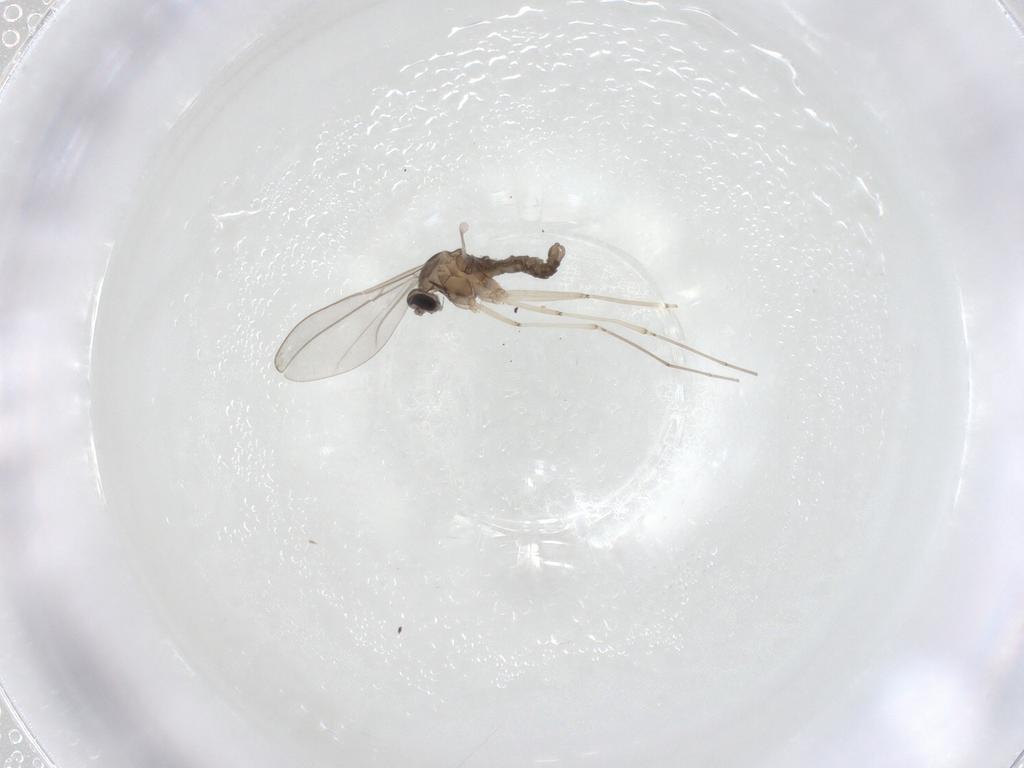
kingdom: Animalia
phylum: Arthropoda
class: Insecta
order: Diptera
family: Cecidomyiidae
